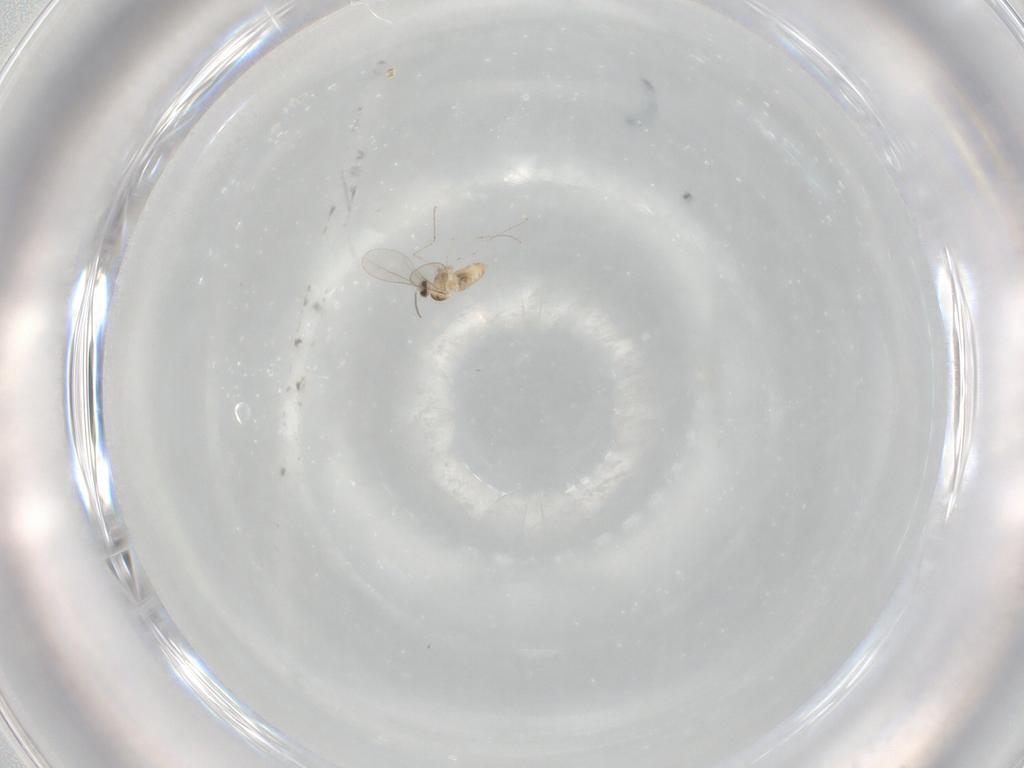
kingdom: Animalia
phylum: Arthropoda
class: Insecta
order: Diptera
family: Cecidomyiidae
